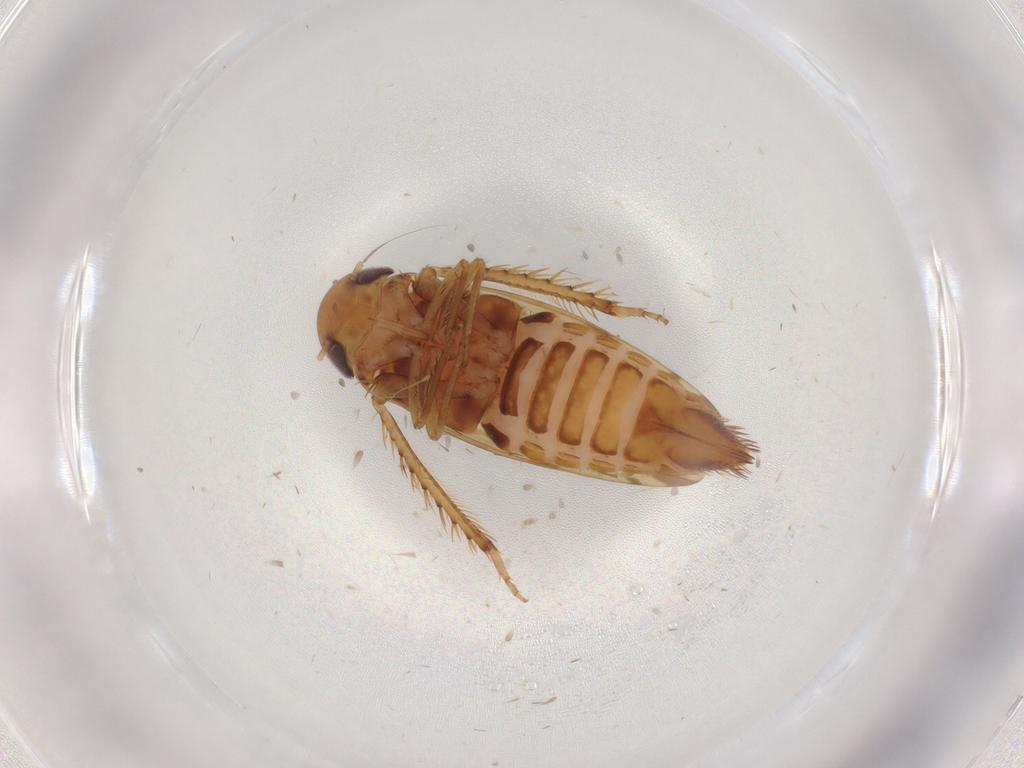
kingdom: Animalia
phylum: Arthropoda
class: Insecta
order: Hemiptera
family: Cicadellidae
